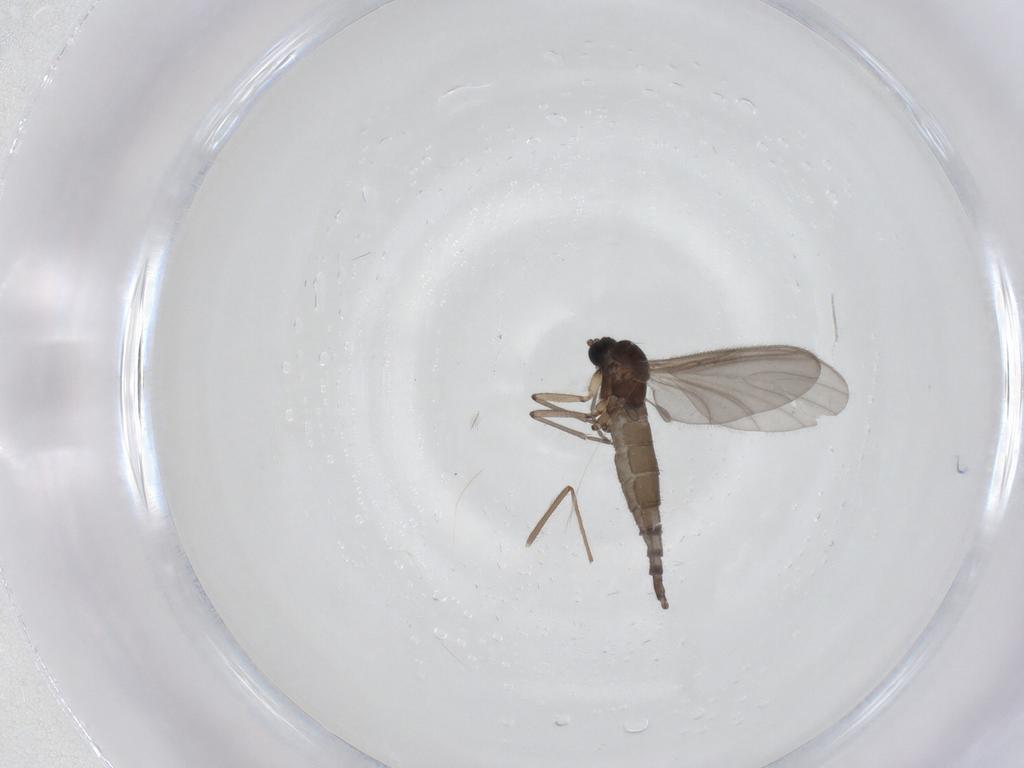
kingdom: Animalia
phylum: Arthropoda
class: Insecta
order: Diptera
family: Sciaridae
